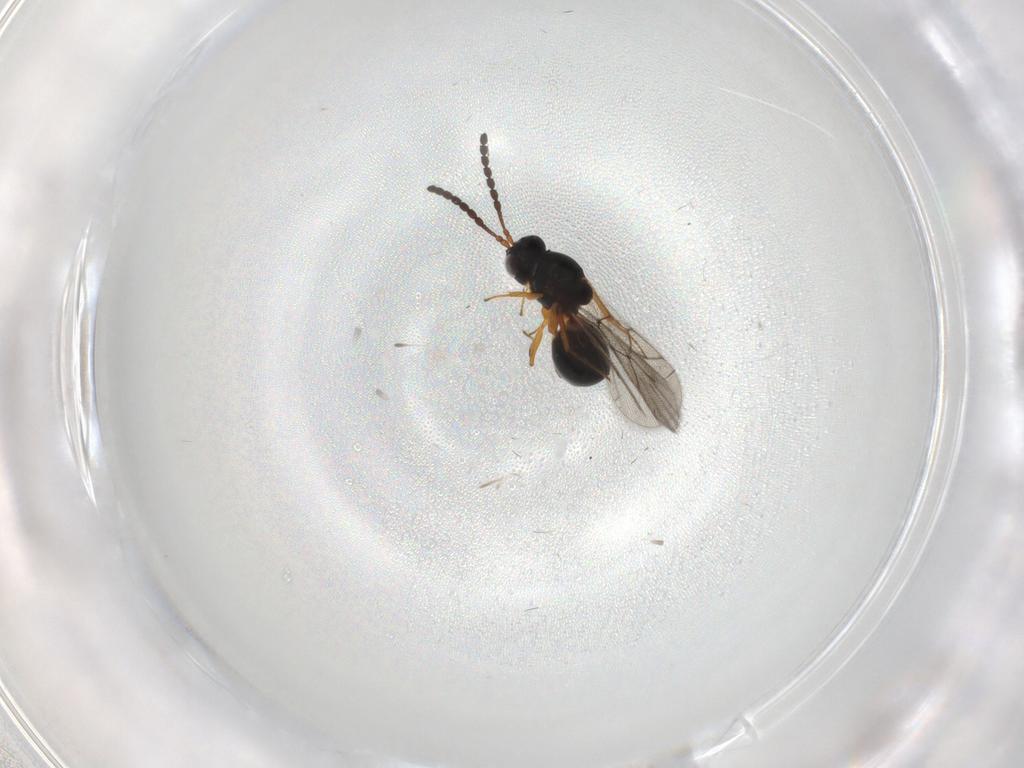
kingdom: Animalia
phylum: Arthropoda
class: Insecta
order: Hymenoptera
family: Figitidae
